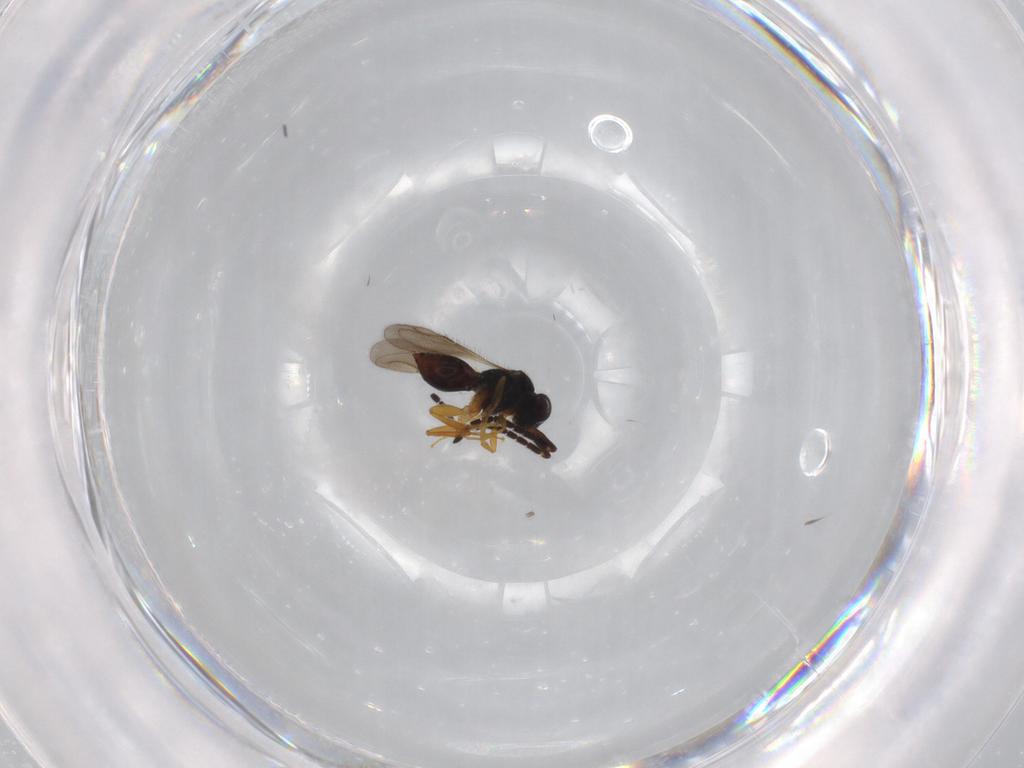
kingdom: Animalia
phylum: Arthropoda
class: Insecta
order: Hymenoptera
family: Ceraphronidae
